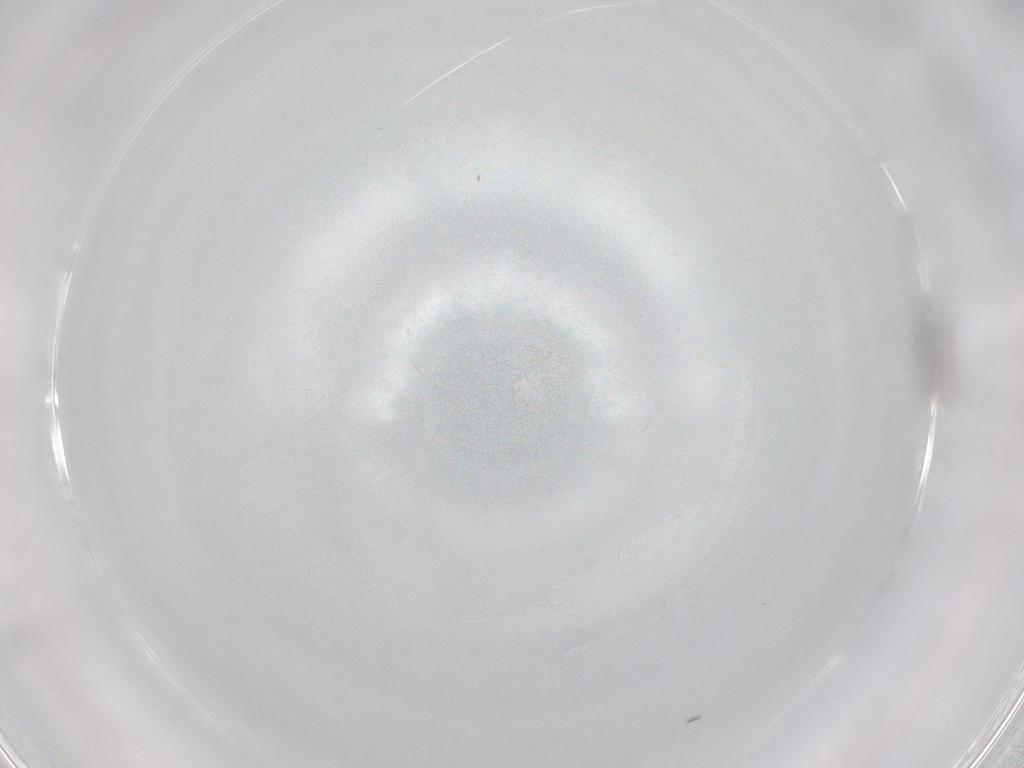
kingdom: Animalia
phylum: Arthropoda
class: Insecta
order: Diptera
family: Cecidomyiidae
